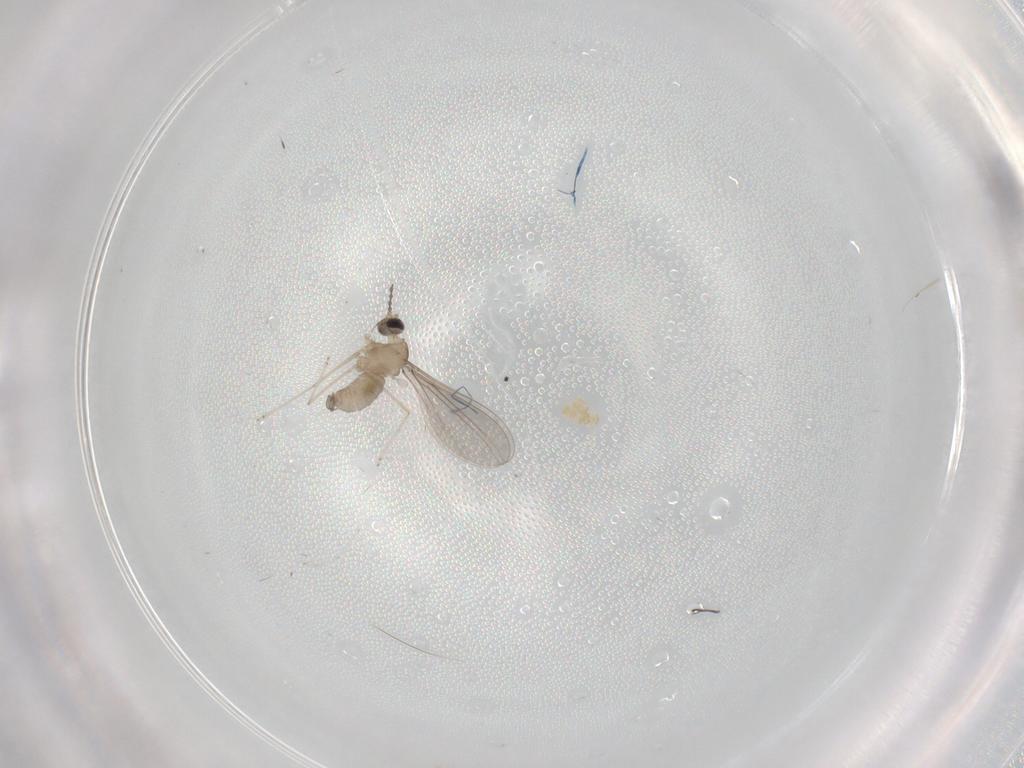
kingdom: Animalia
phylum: Arthropoda
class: Insecta
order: Diptera
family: Cecidomyiidae
